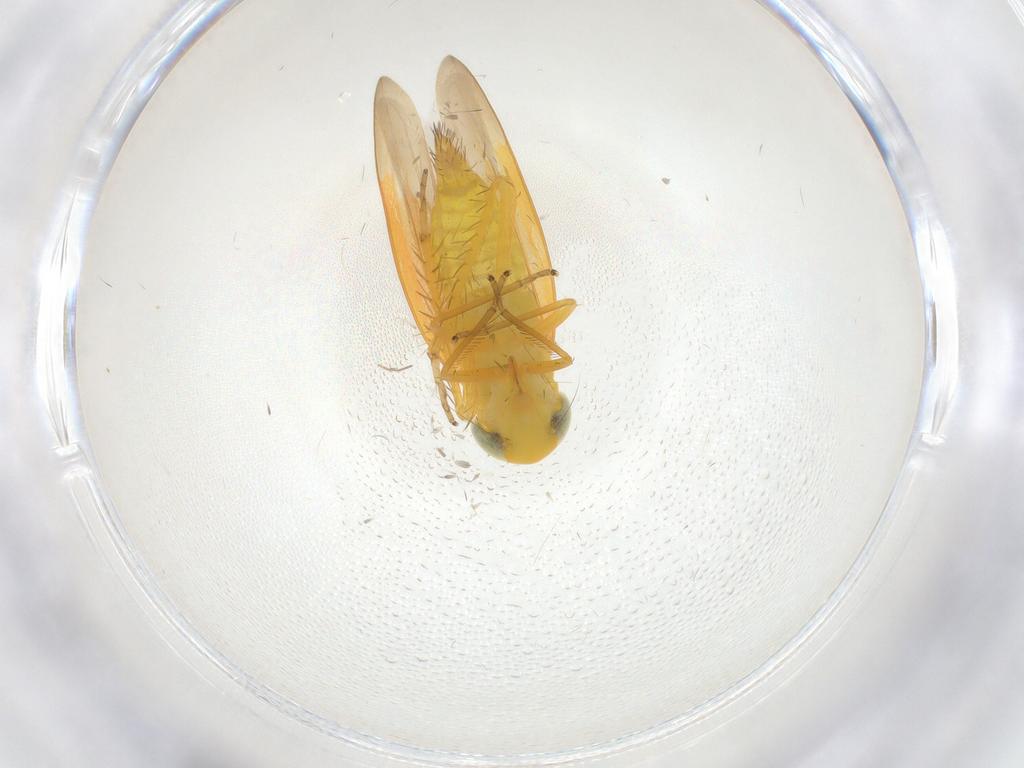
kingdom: Animalia
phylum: Arthropoda
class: Insecta
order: Hemiptera
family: Cicadellidae
